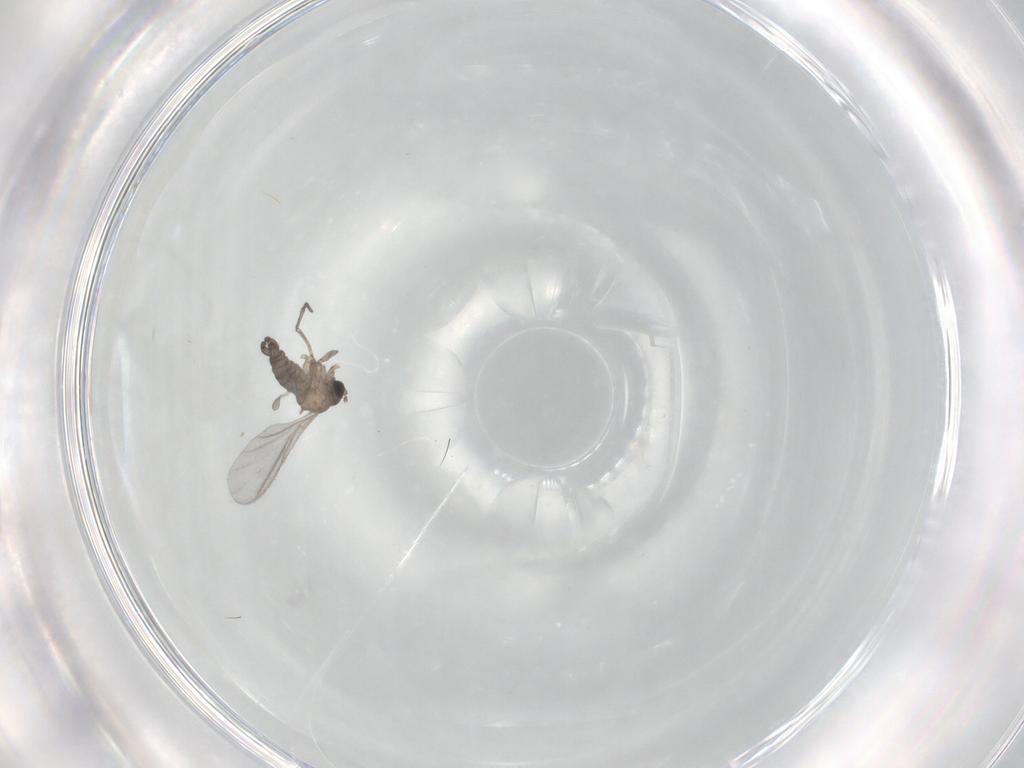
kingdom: Animalia
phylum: Arthropoda
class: Insecta
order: Diptera
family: Sciaridae
